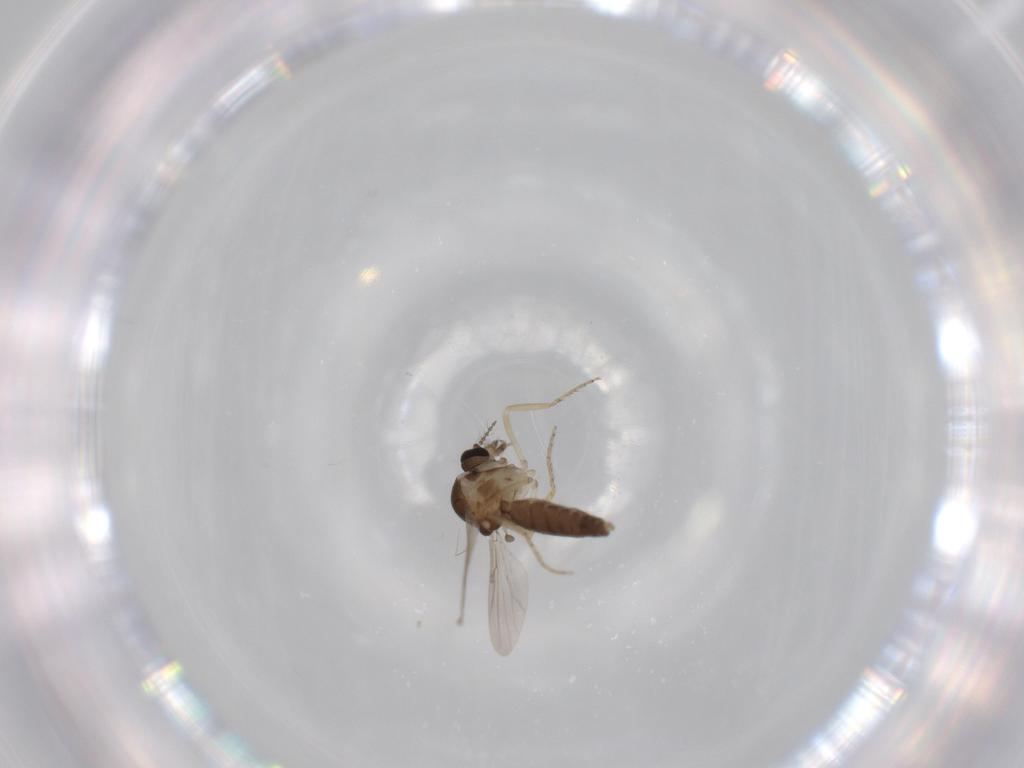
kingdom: Animalia
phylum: Arthropoda
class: Insecta
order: Diptera
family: Ceratopogonidae
